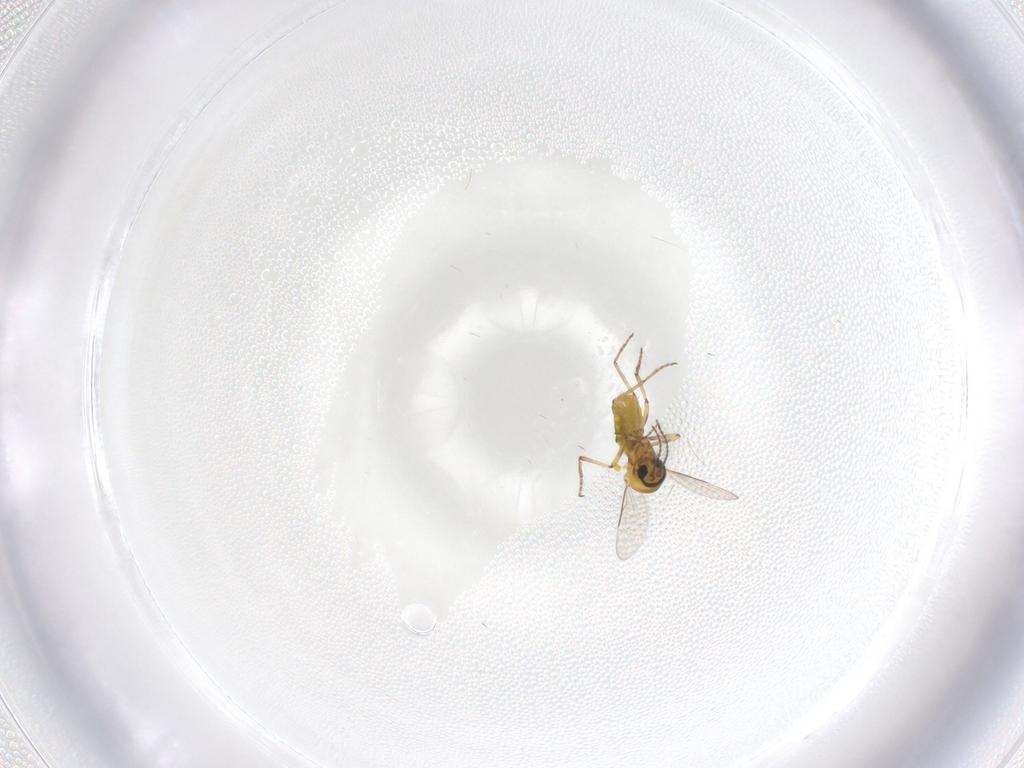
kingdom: Animalia
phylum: Arthropoda
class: Insecta
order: Diptera
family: Ceratopogonidae
